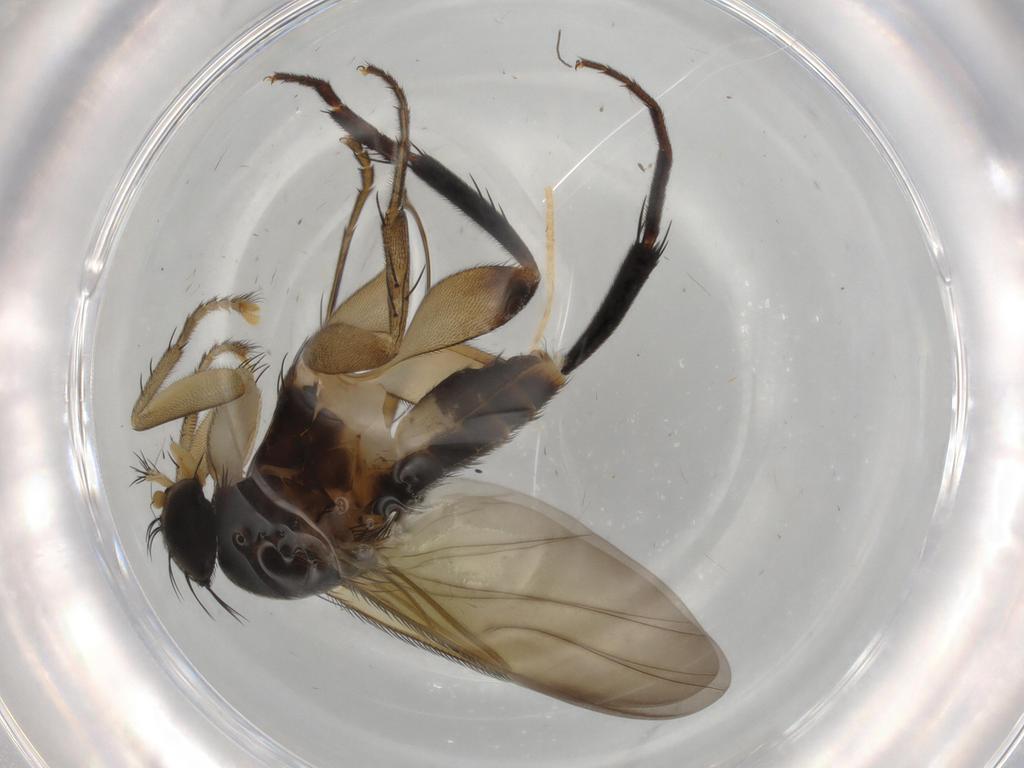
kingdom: Animalia
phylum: Arthropoda
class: Insecta
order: Diptera
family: Phoridae
